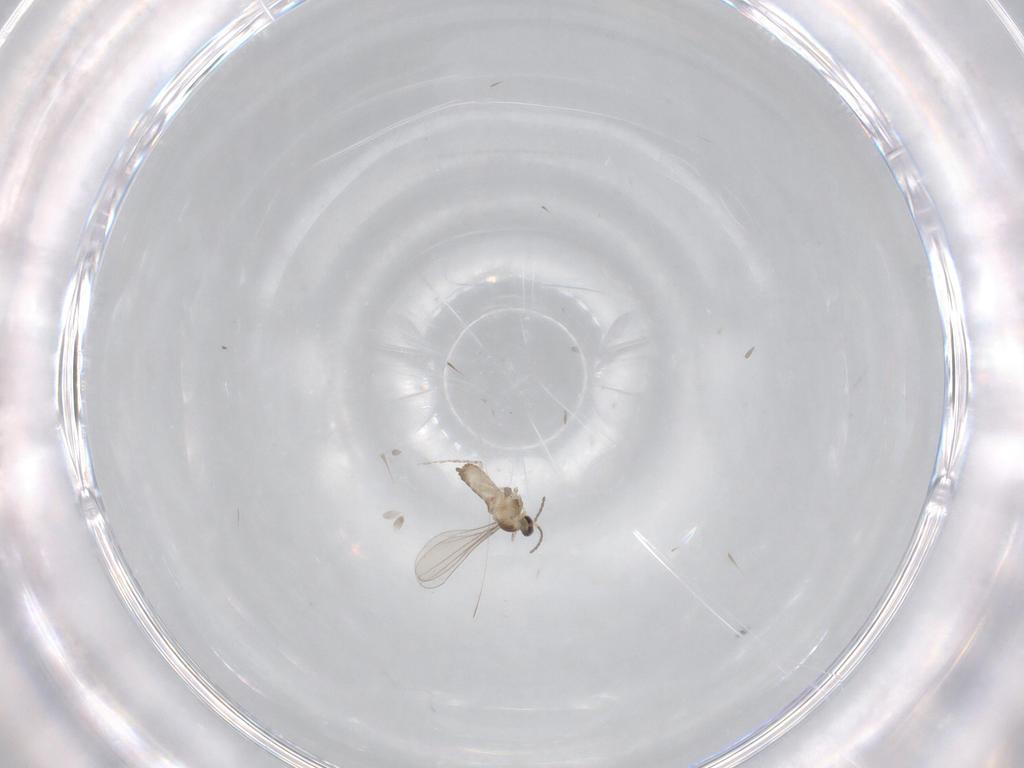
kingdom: Animalia
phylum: Arthropoda
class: Insecta
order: Diptera
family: Cecidomyiidae
